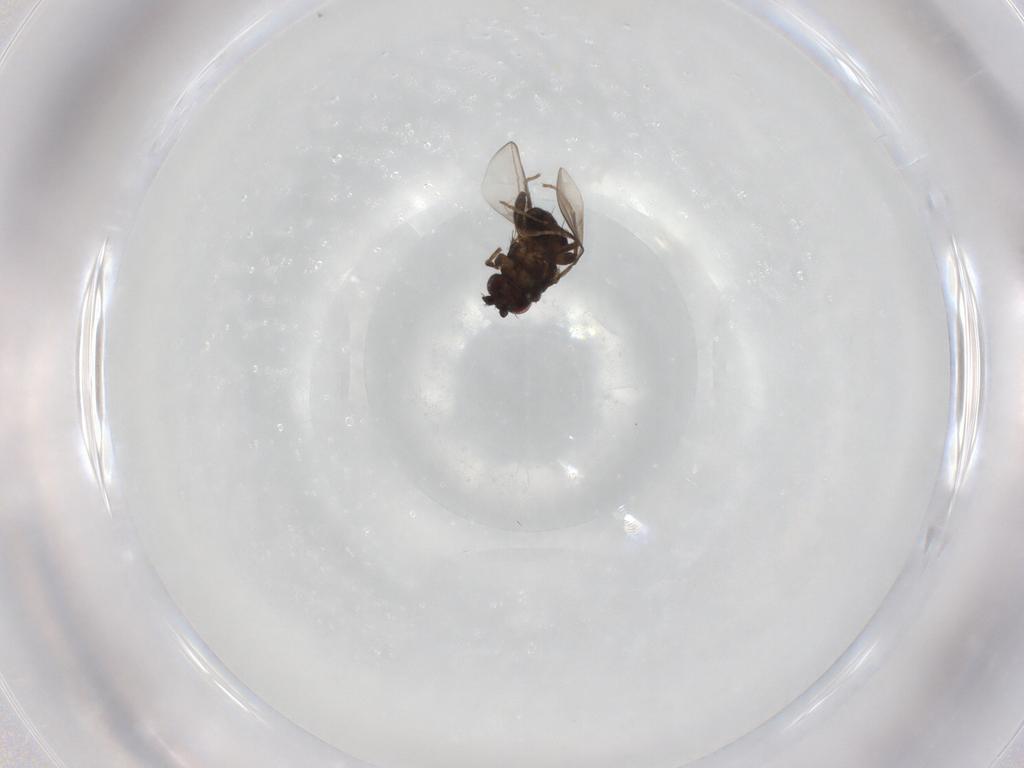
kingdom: Animalia
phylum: Arthropoda
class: Insecta
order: Diptera
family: Sphaeroceridae
